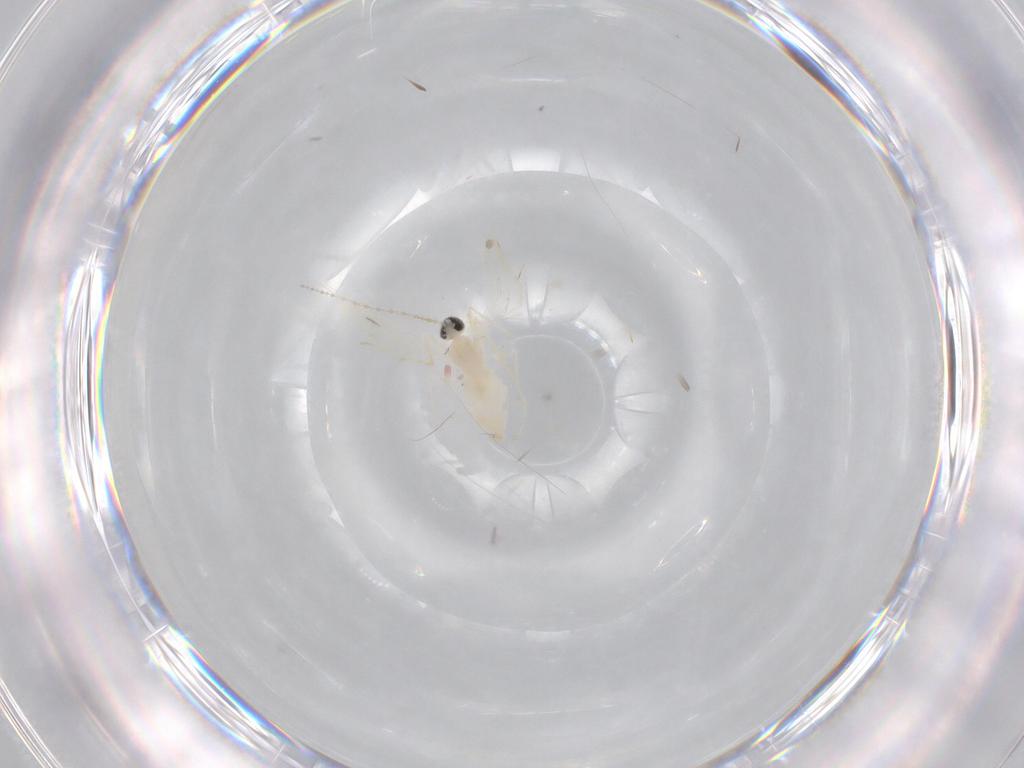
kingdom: Animalia
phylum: Arthropoda
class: Insecta
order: Diptera
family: Cecidomyiidae
